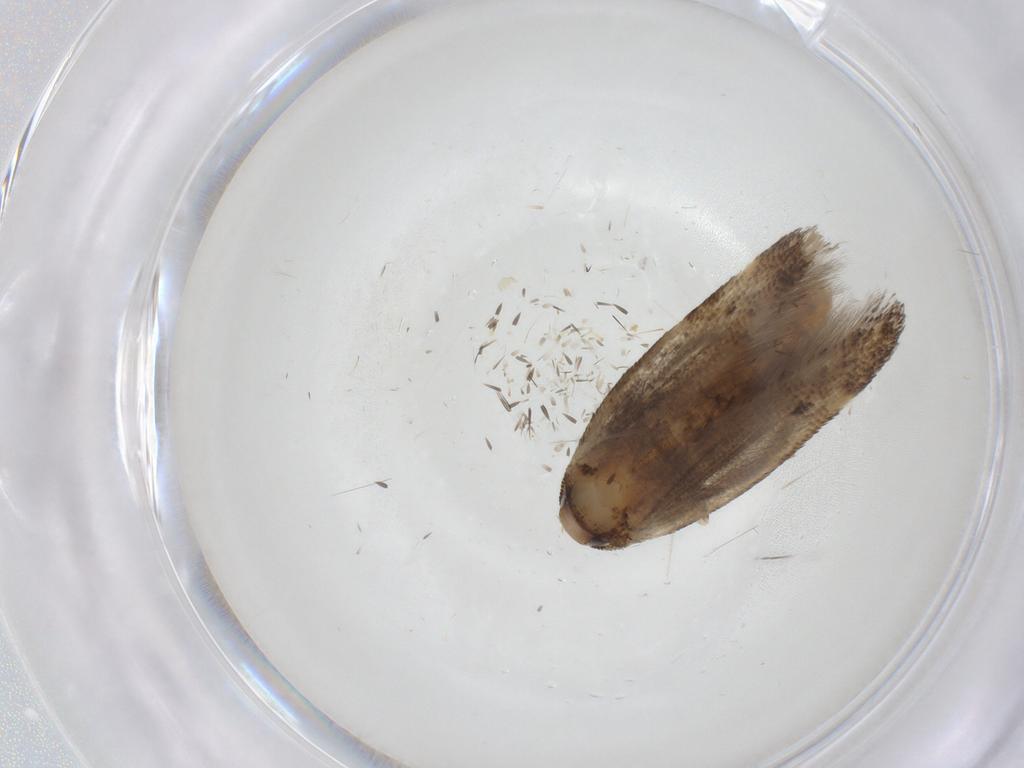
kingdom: Animalia
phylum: Arthropoda
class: Insecta
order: Lepidoptera
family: Gelechiidae
